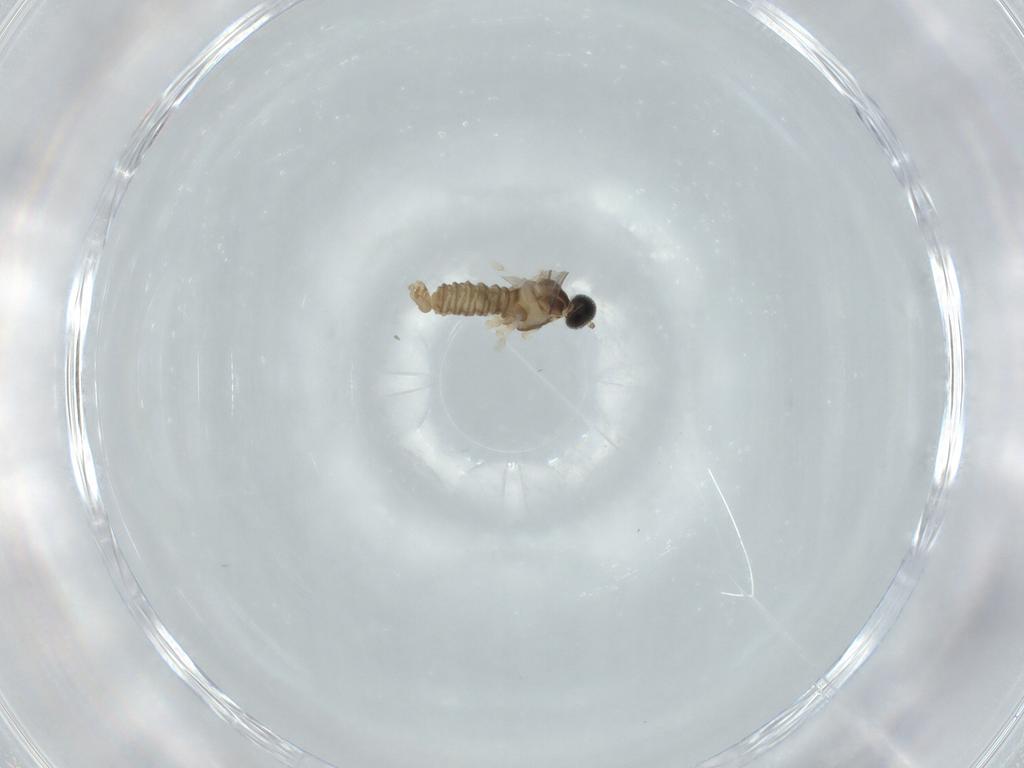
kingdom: Animalia
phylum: Arthropoda
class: Insecta
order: Diptera
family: Cecidomyiidae
